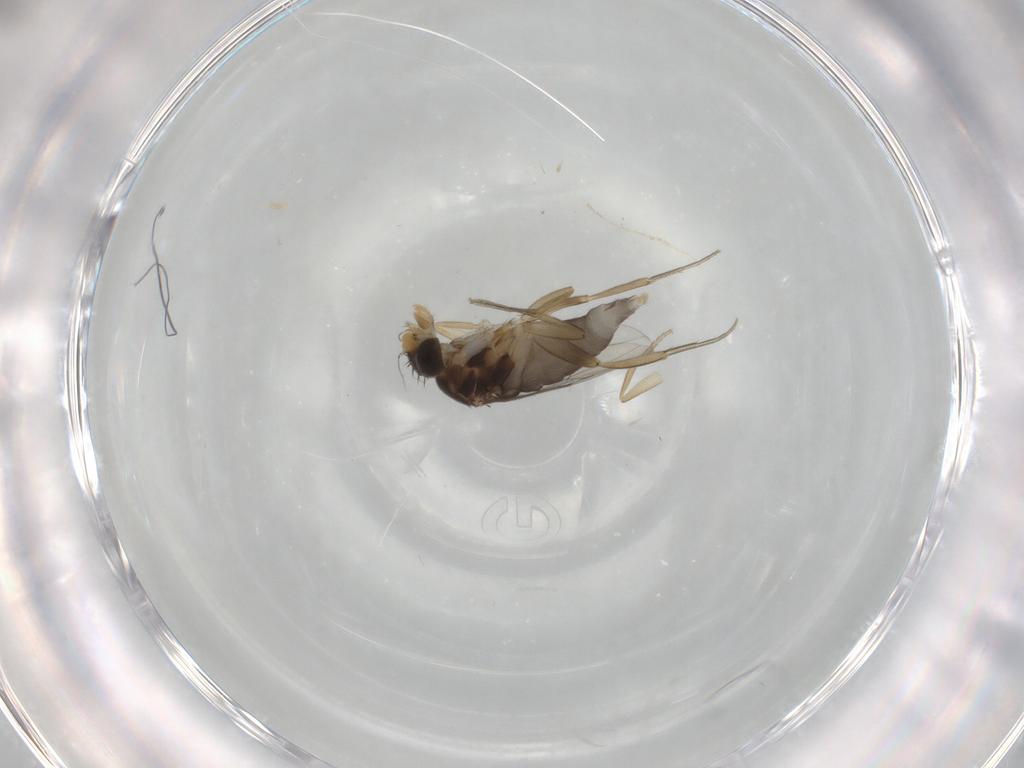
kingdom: Animalia
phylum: Arthropoda
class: Insecta
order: Diptera
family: Phoridae
